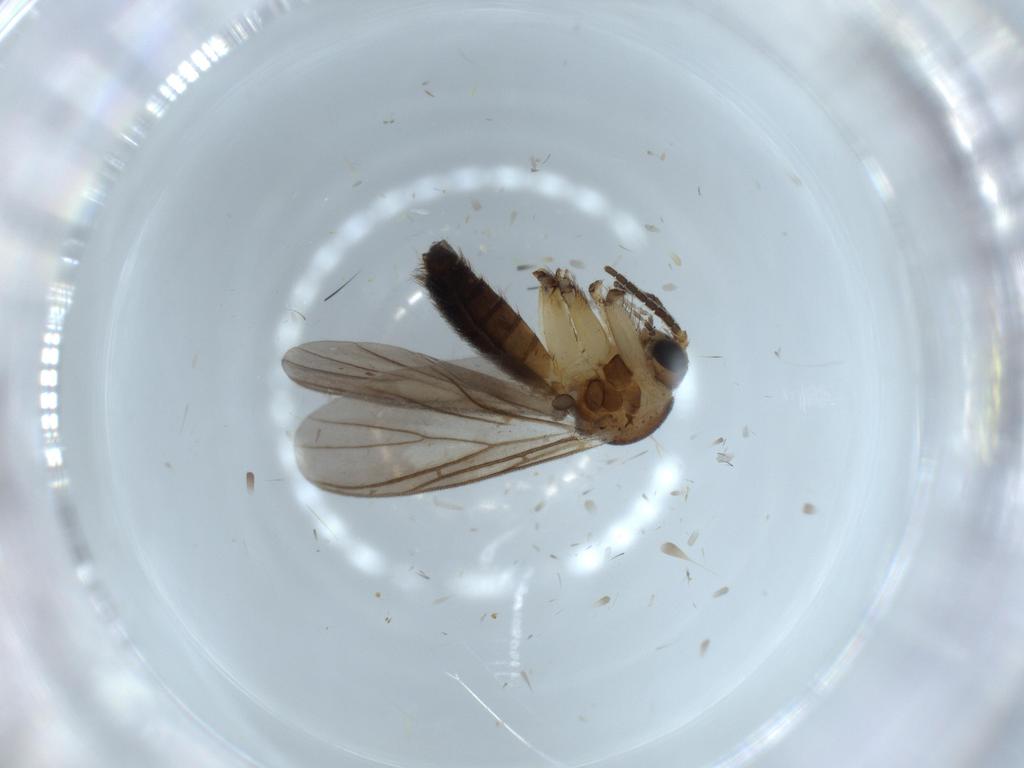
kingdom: Animalia
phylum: Arthropoda
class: Insecta
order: Diptera
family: Mycetophilidae
